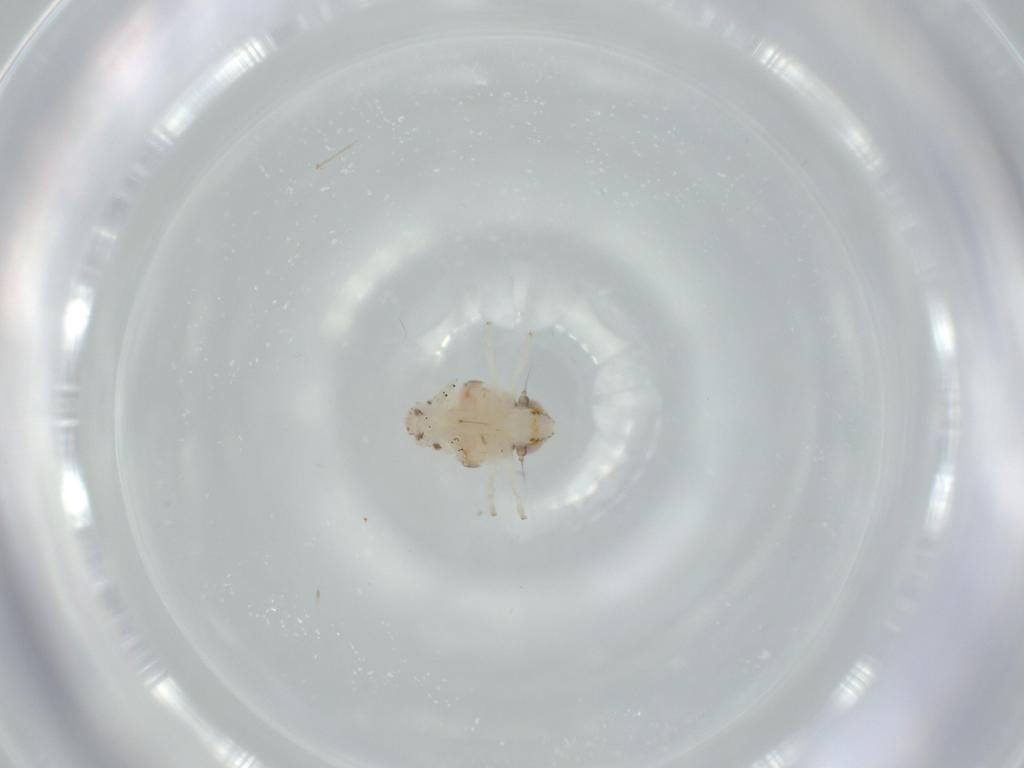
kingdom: Animalia
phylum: Arthropoda
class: Insecta
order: Hemiptera
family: Nogodinidae
